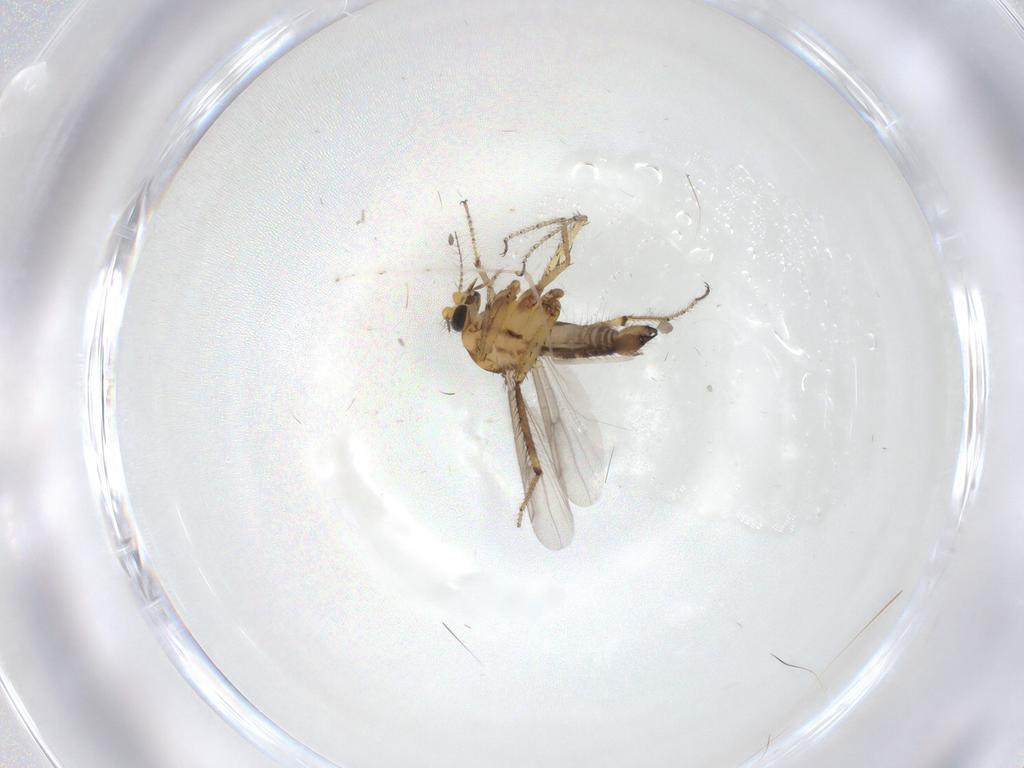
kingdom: Animalia
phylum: Arthropoda
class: Insecta
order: Diptera
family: Ceratopogonidae
